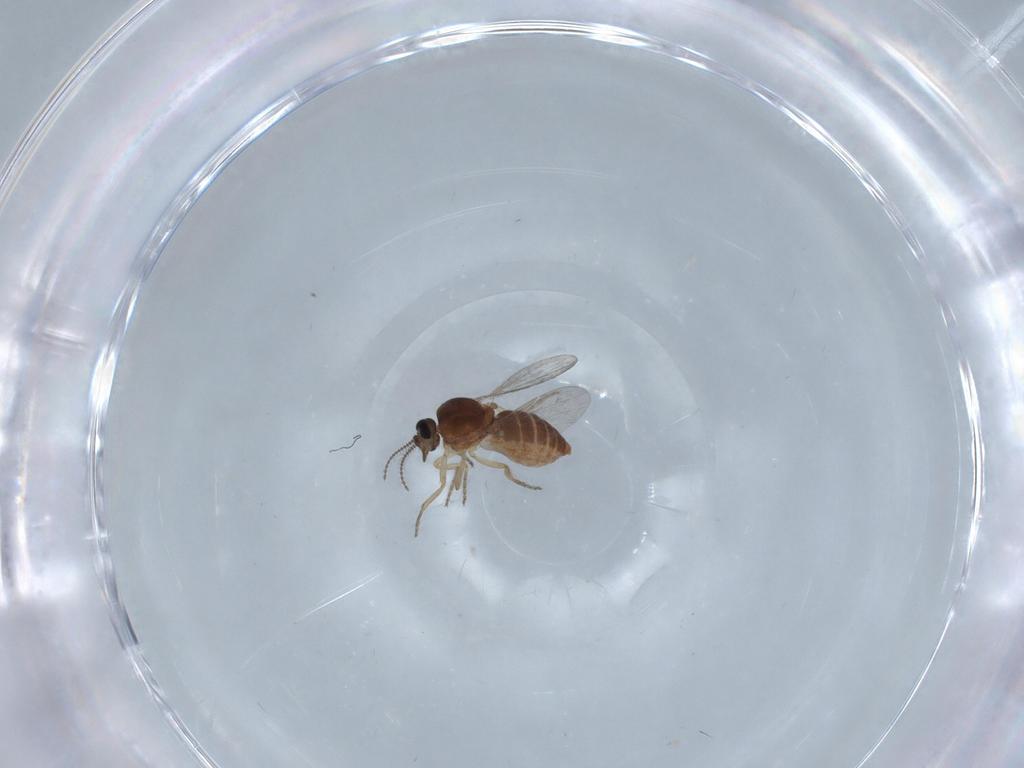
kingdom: Animalia
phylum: Arthropoda
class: Insecta
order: Diptera
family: Ceratopogonidae
